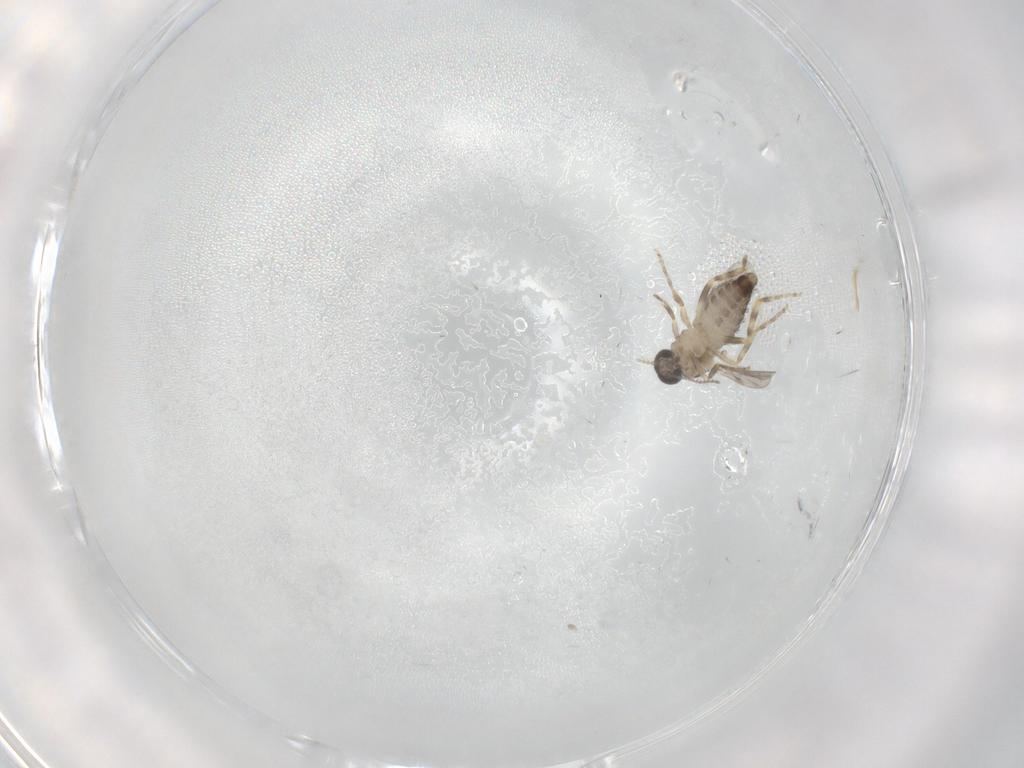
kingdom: Animalia
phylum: Arthropoda
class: Insecta
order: Diptera
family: Ceratopogonidae
